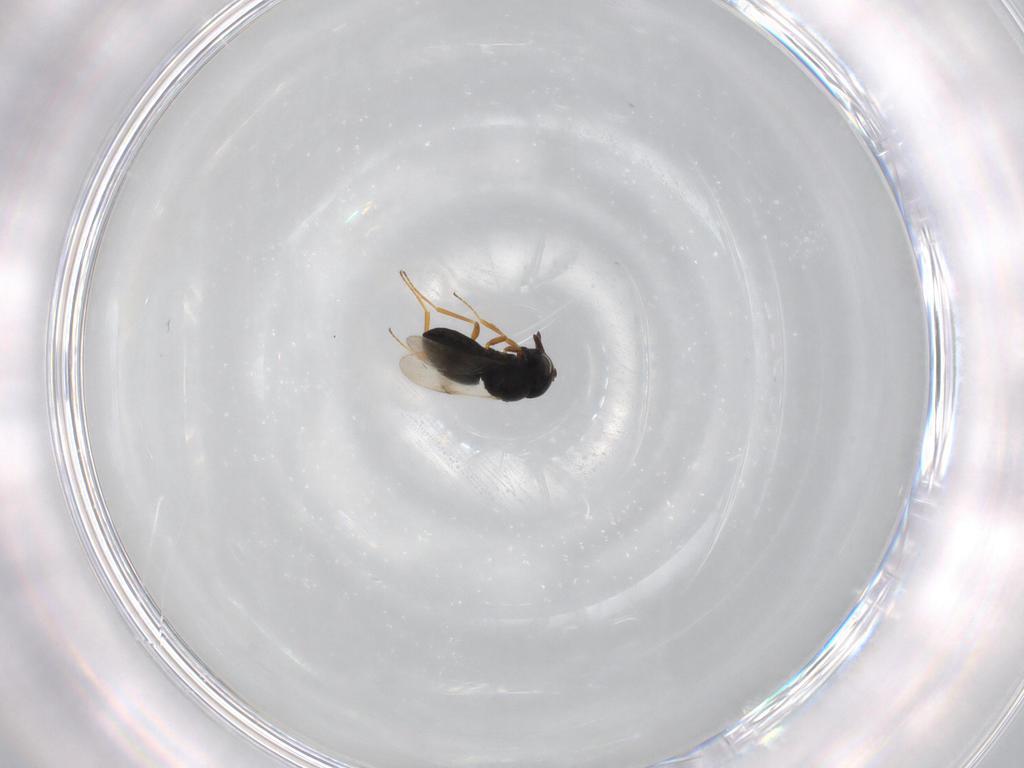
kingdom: Animalia
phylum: Arthropoda
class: Insecta
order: Hymenoptera
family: Scelionidae
